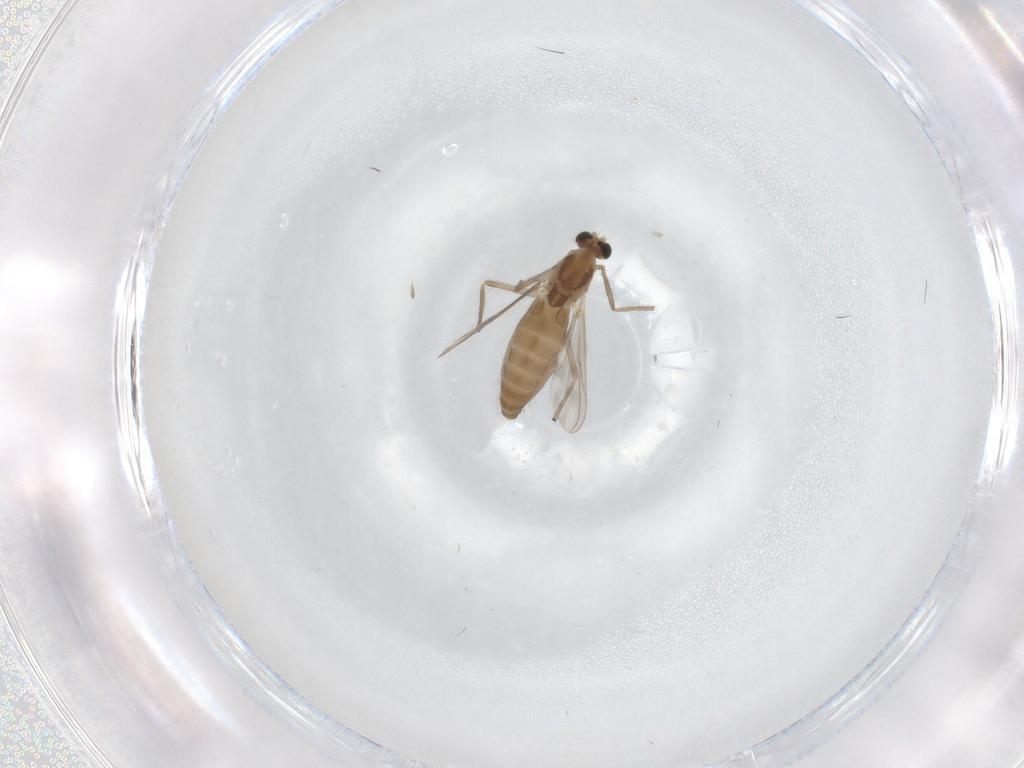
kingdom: Animalia
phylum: Arthropoda
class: Insecta
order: Diptera
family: Chironomidae
